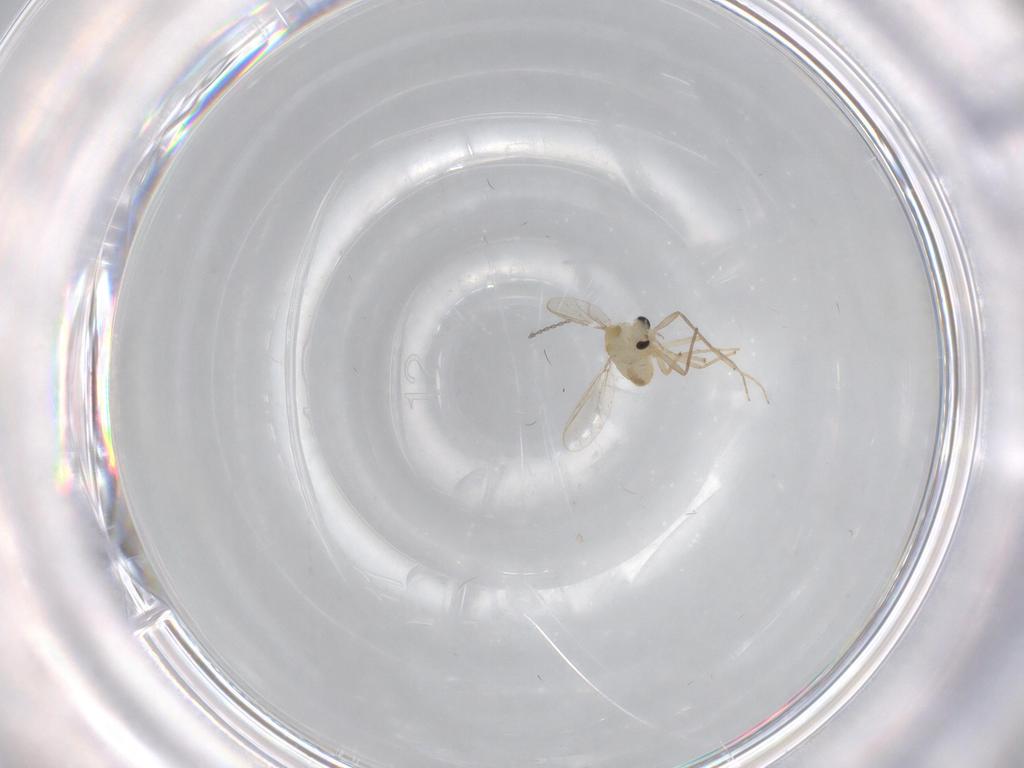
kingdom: Animalia
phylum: Arthropoda
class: Insecta
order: Diptera
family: Chironomidae
